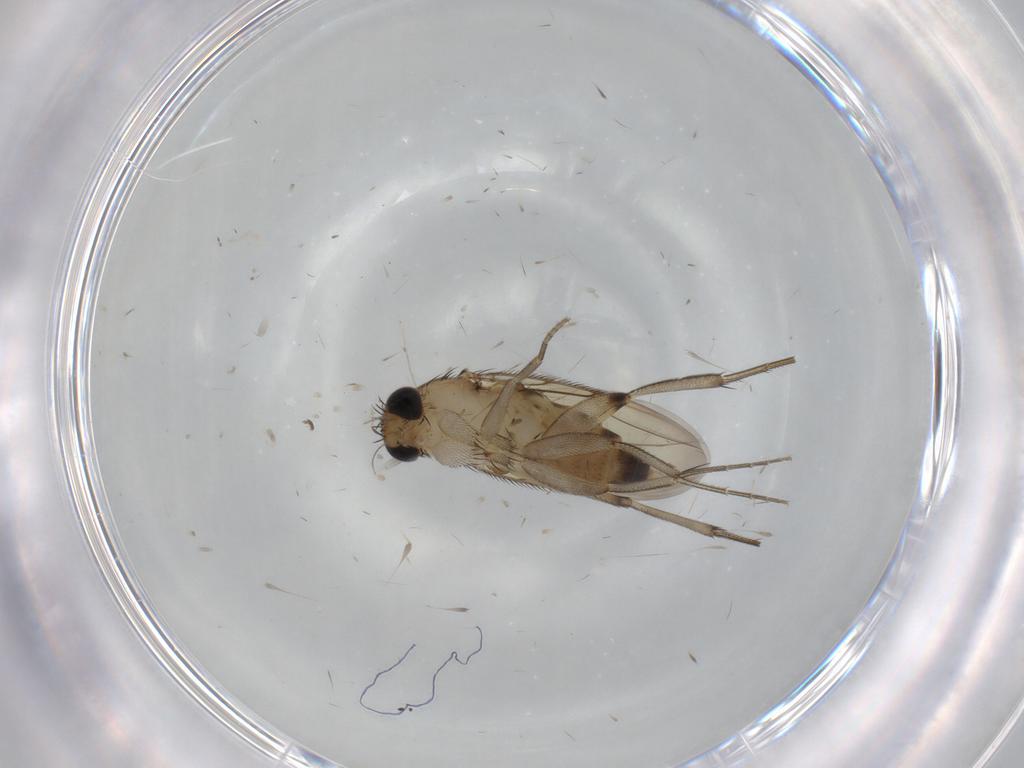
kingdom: Animalia
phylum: Arthropoda
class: Insecta
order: Diptera
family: Phoridae
